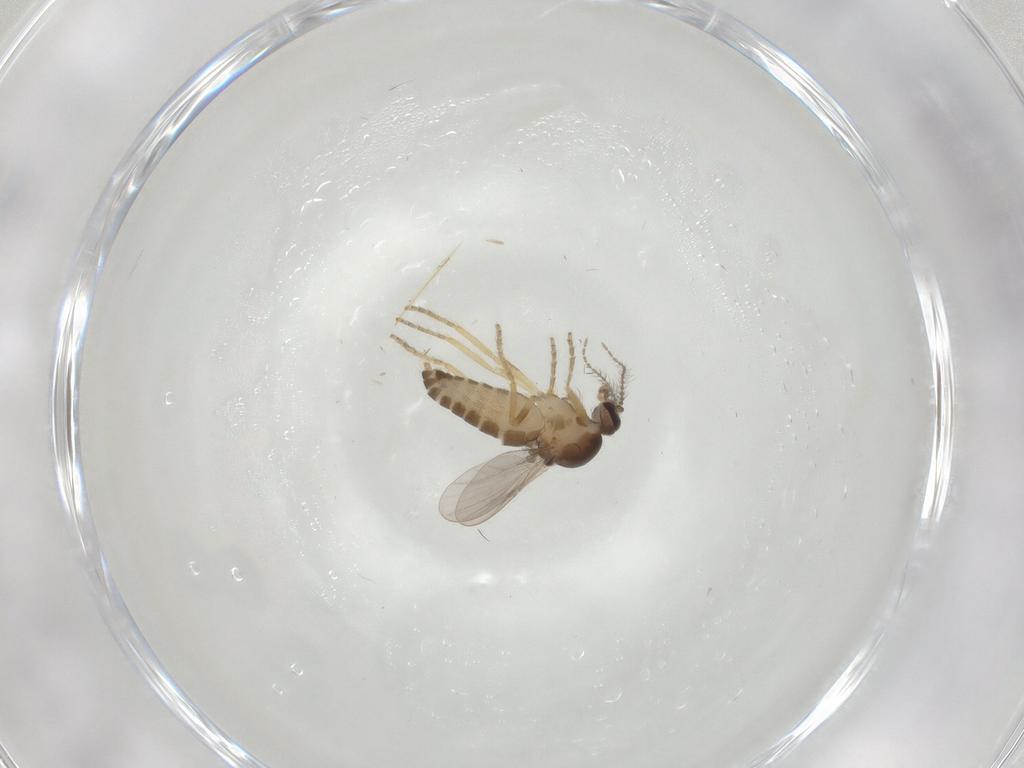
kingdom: Animalia
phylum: Arthropoda
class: Insecta
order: Diptera
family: Ceratopogonidae
